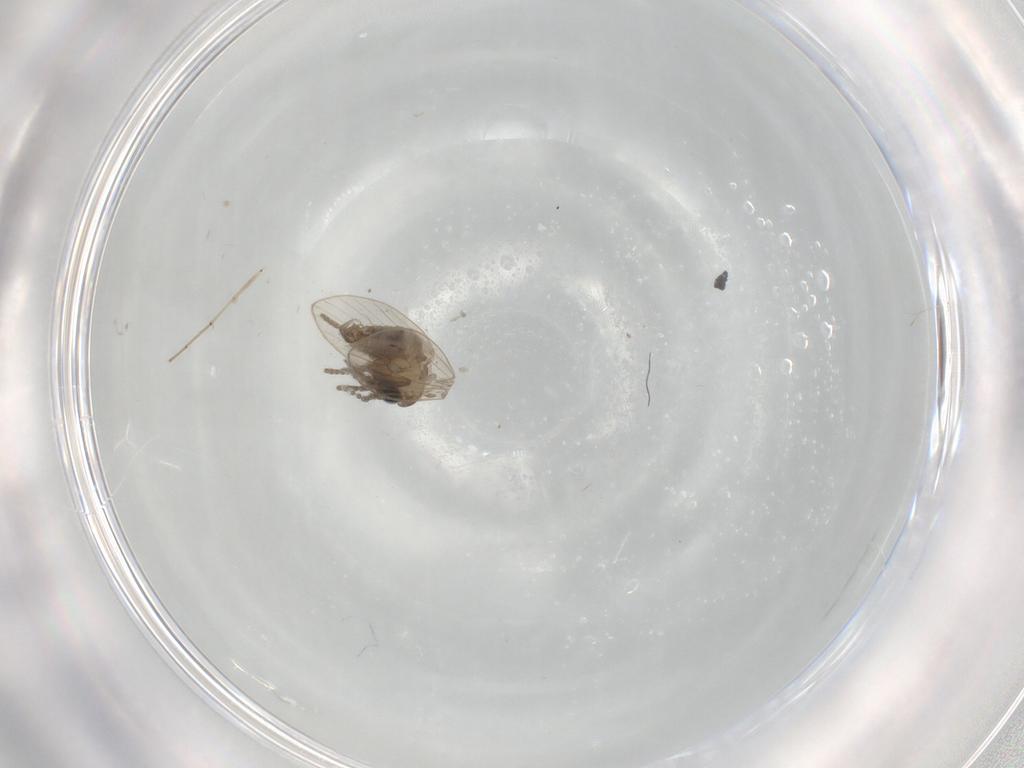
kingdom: Animalia
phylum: Arthropoda
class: Insecta
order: Diptera
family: Psychodidae
